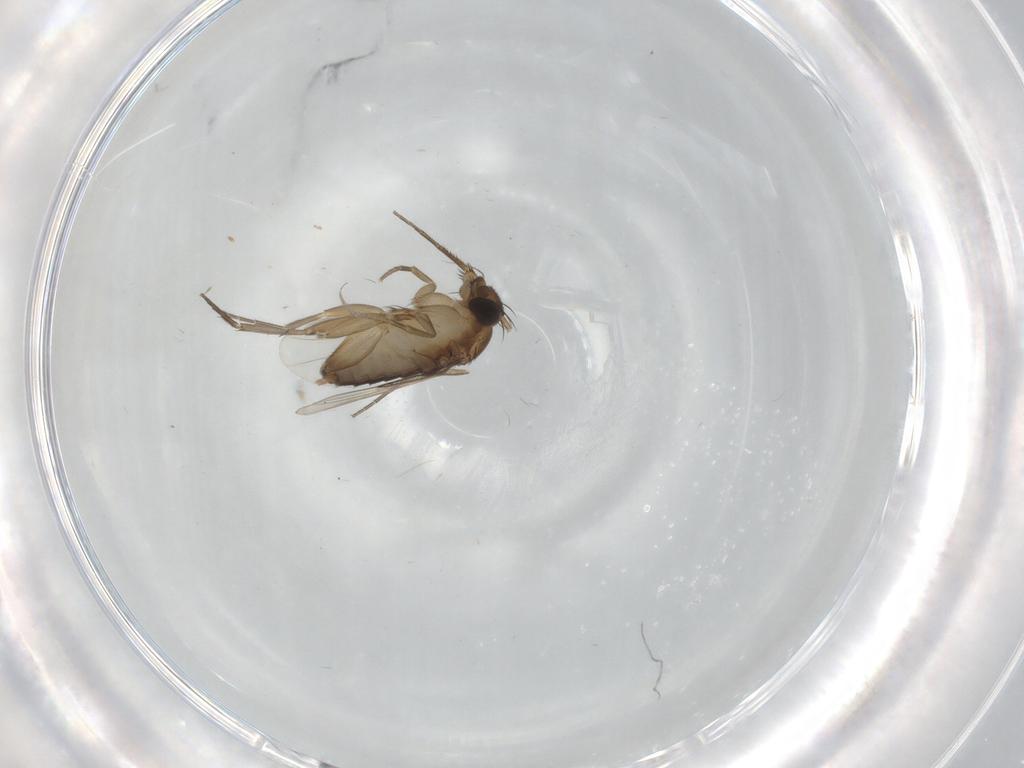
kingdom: Animalia
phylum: Arthropoda
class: Insecta
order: Diptera
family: Phoridae
